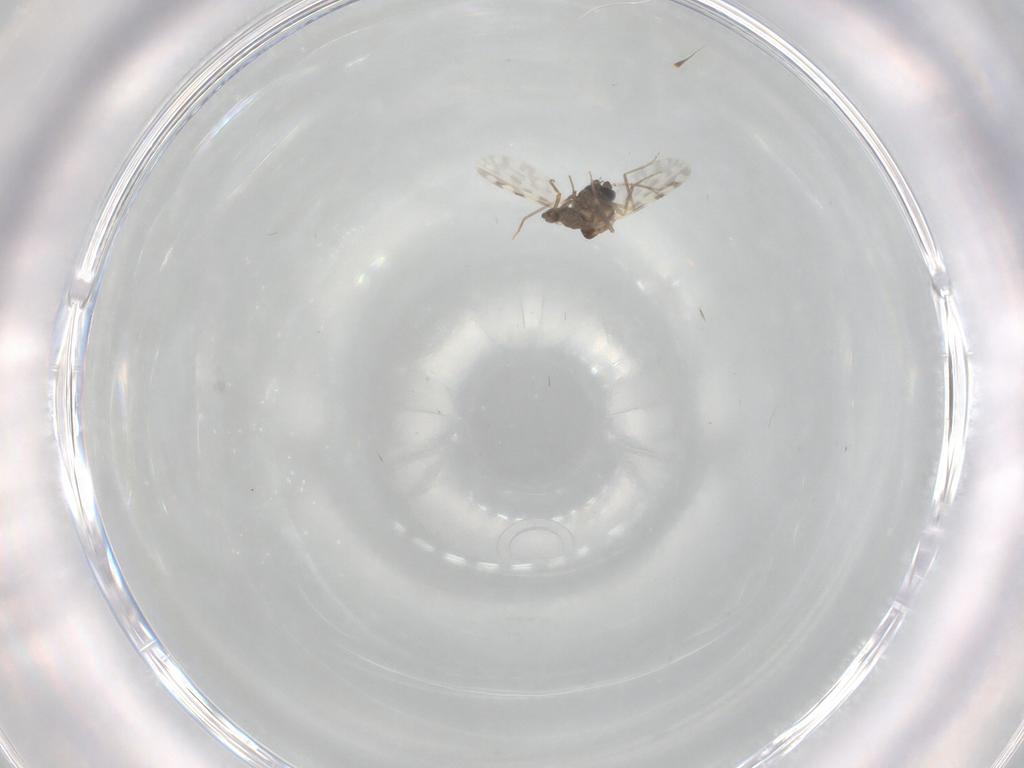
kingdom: Animalia
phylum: Arthropoda
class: Insecta
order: Diptera
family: Ceratopogonidae
